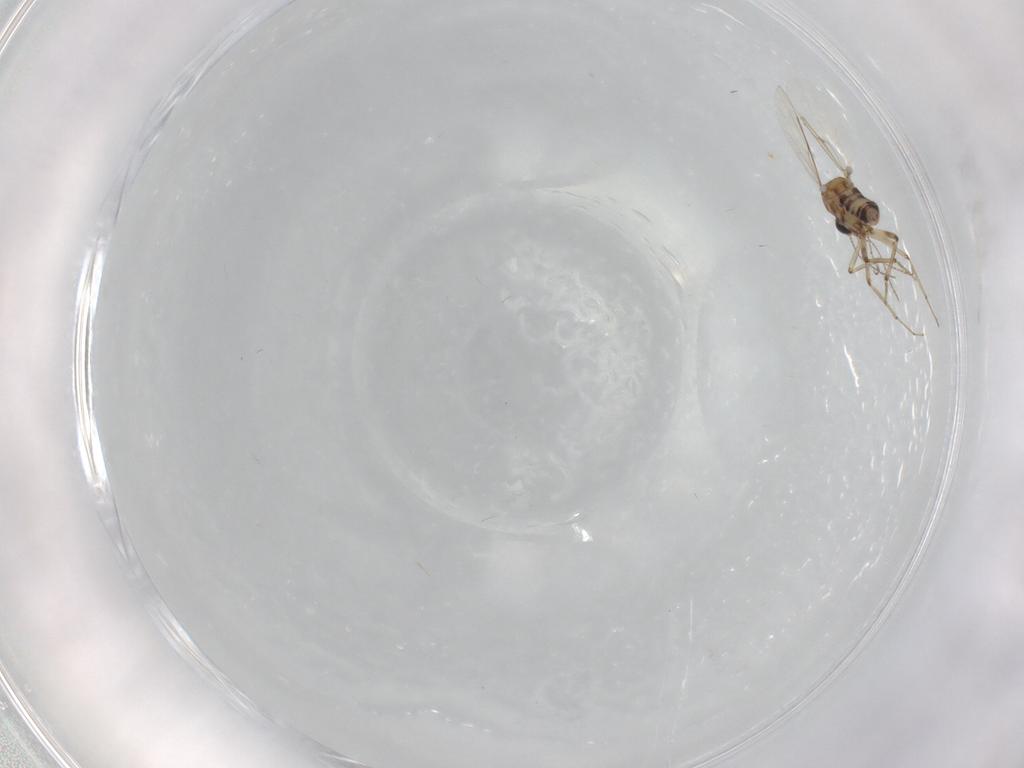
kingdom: Animalia
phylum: Arthropoda
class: Insecta
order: Diptera
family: Ceratopogonidae
